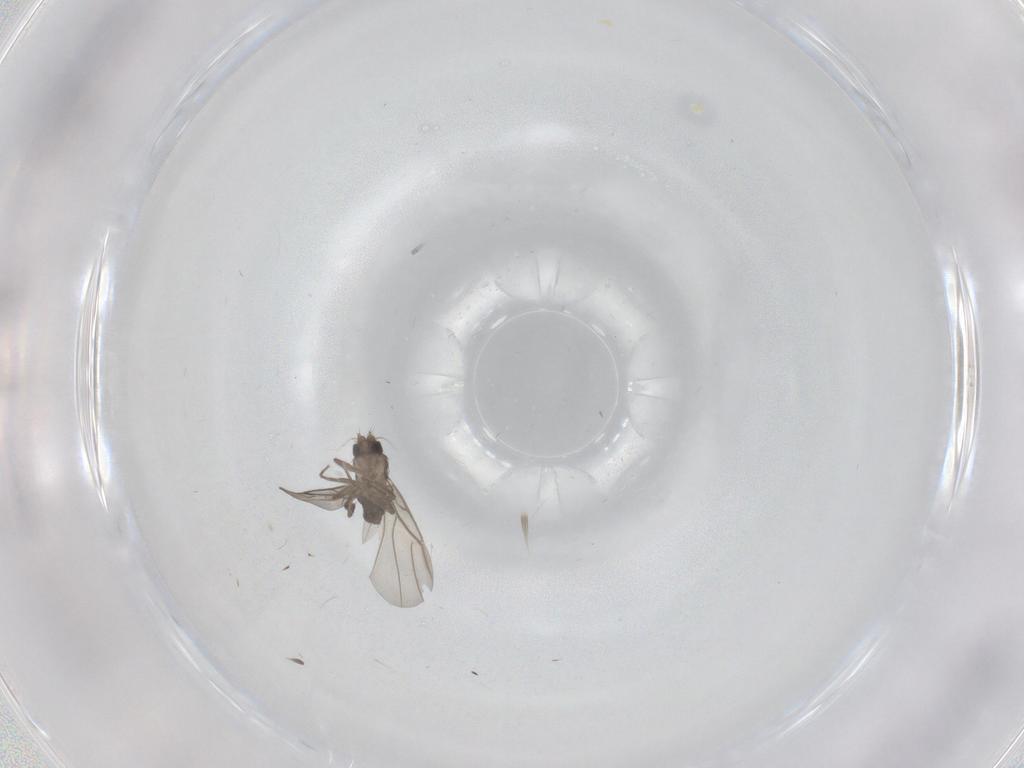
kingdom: Animalia
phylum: Arthropoda
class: Insecta
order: Diptera
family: Phoridae
